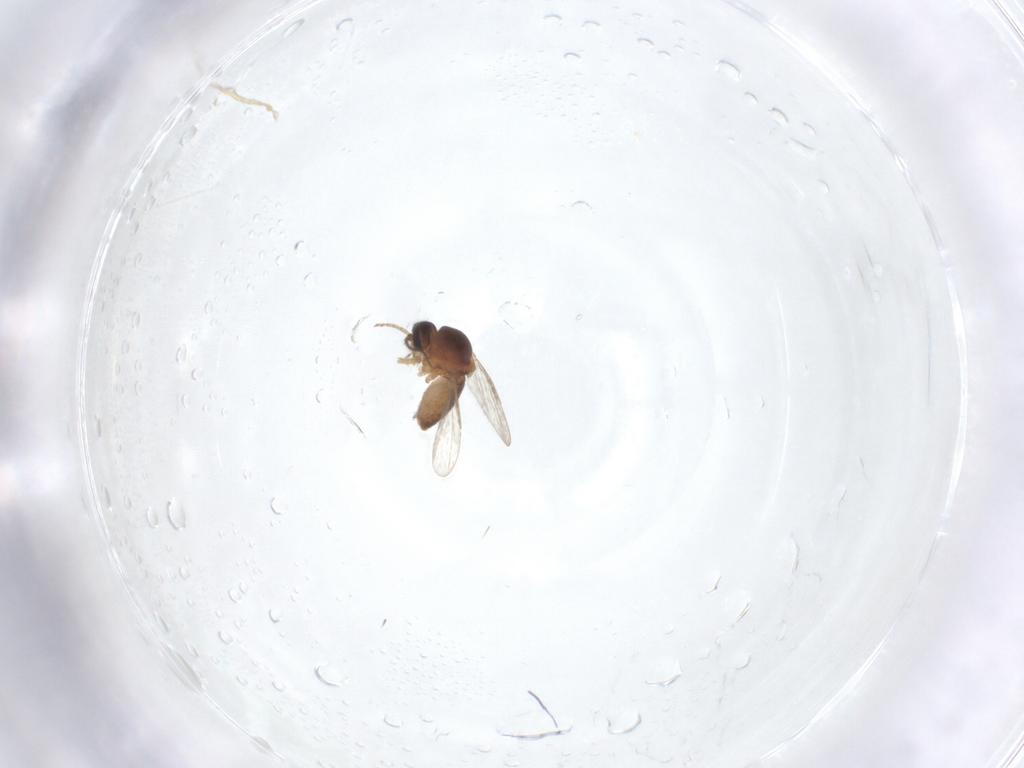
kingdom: Animalia
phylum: Arthropoda
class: Insecta
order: Diptera
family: Ceratopogonidae
